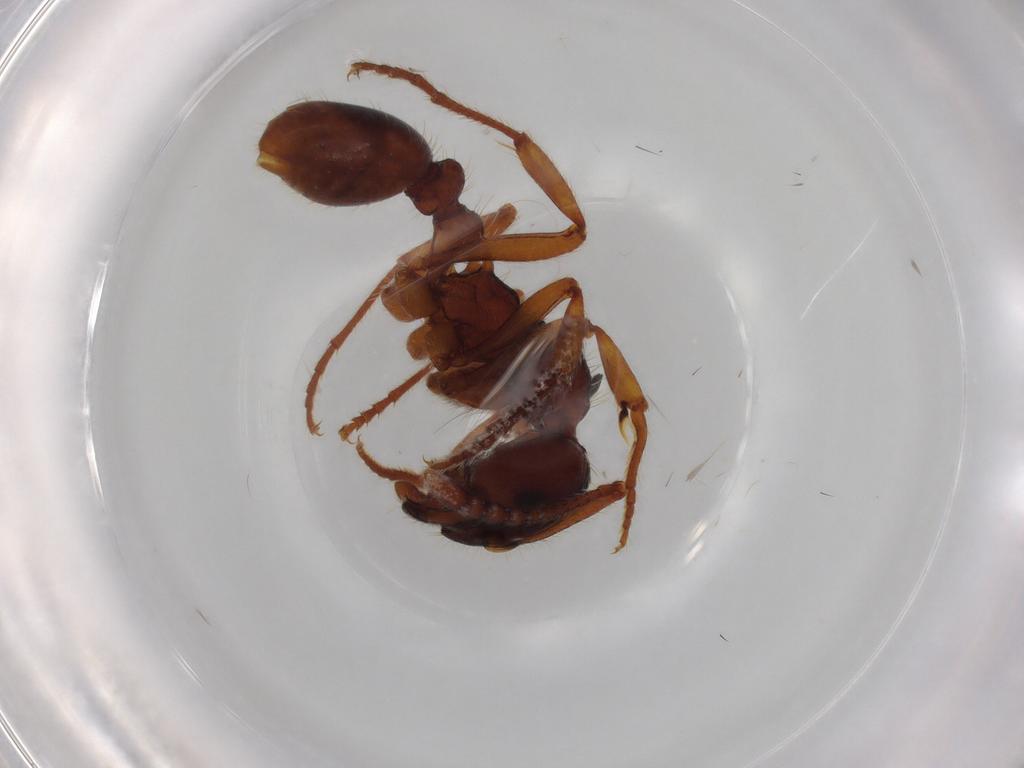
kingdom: Animalia
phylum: Arthropoda
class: Insecta
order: Hymenoptera
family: Formicidae
